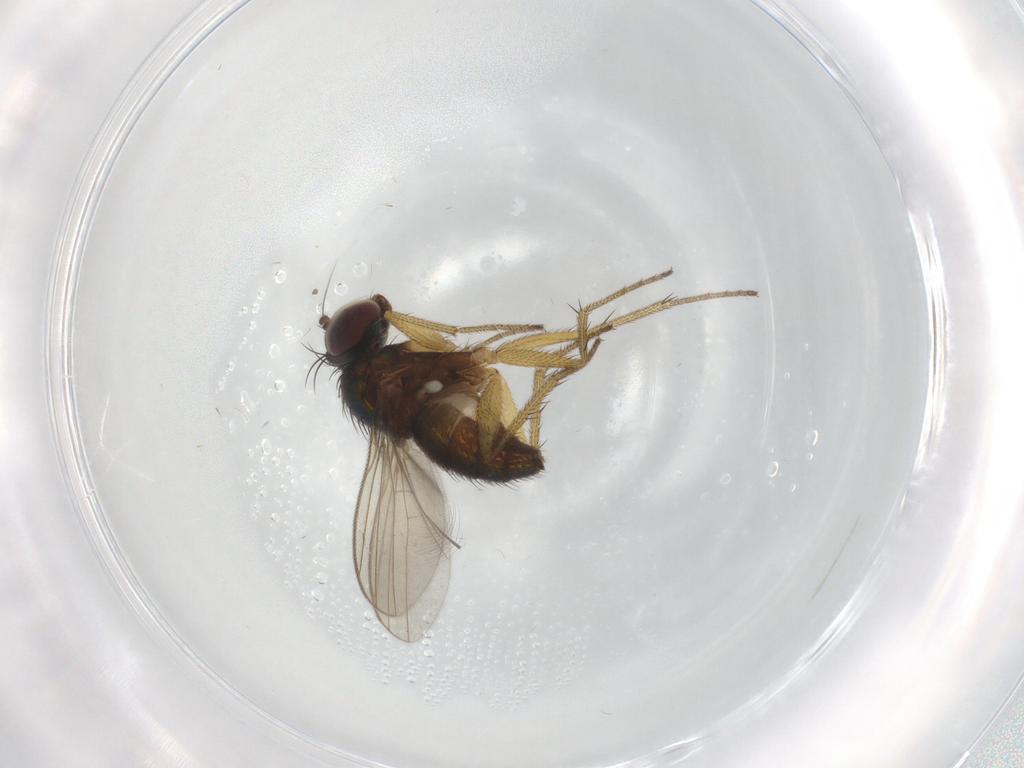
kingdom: Animalia
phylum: Arthropoda
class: Insecta
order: Diptera
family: Dolichopodidae
